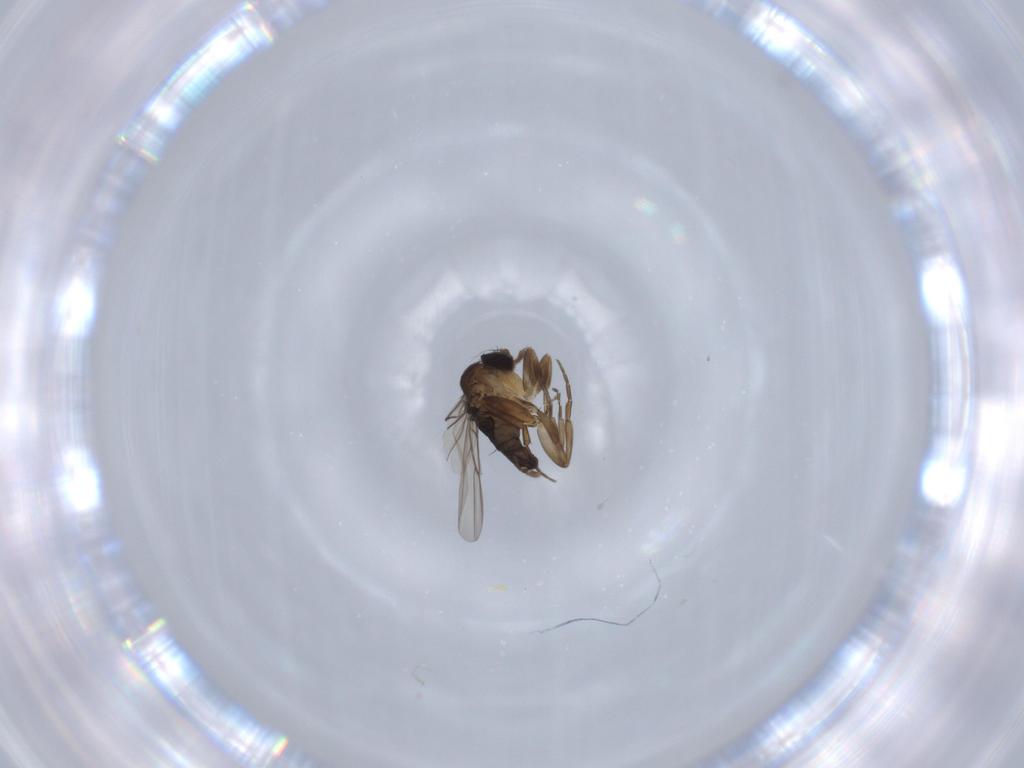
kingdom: Animalia
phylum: Arthropoda
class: Insecta
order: Diptera
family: Phoridae
